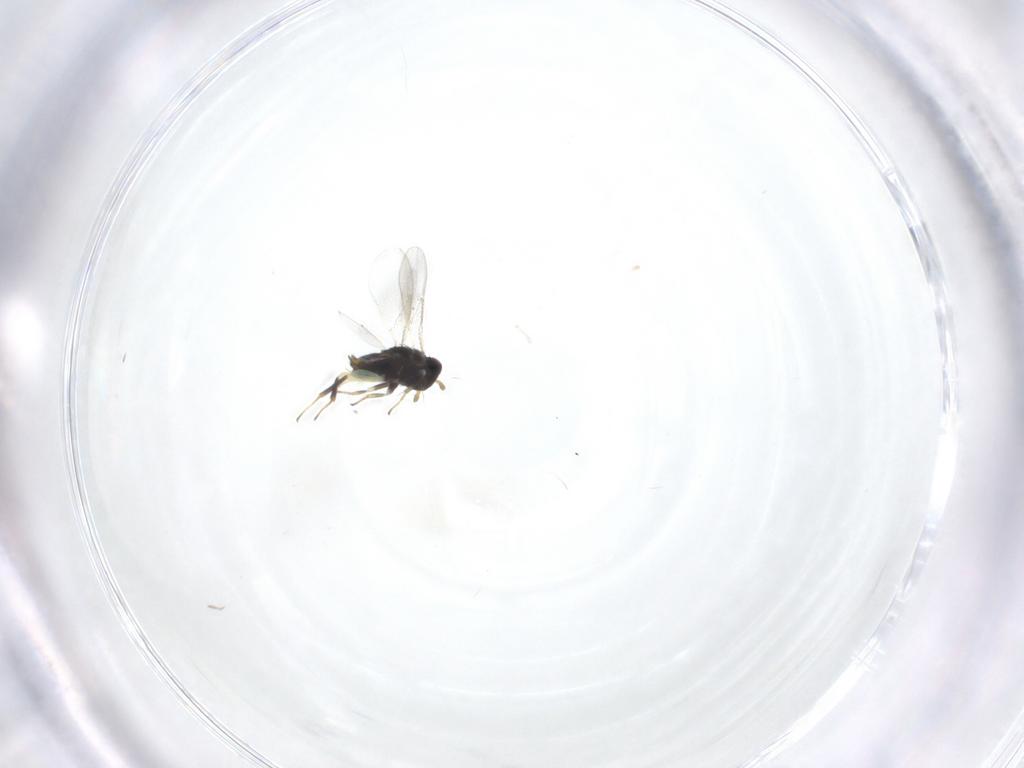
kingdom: Animalia
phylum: Arthropoda
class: Insecta
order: Hymenoptera
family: Aphelinidae
